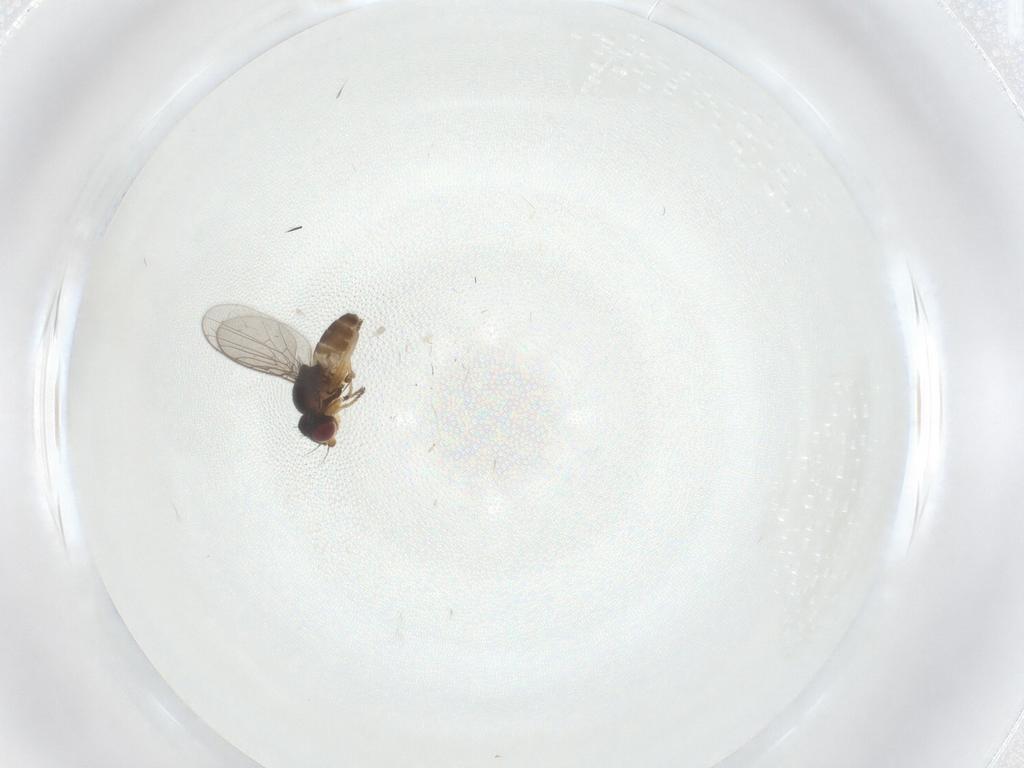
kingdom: Animalia
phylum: Arthropoda
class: Insecta
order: Diptera
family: Chloropidae
